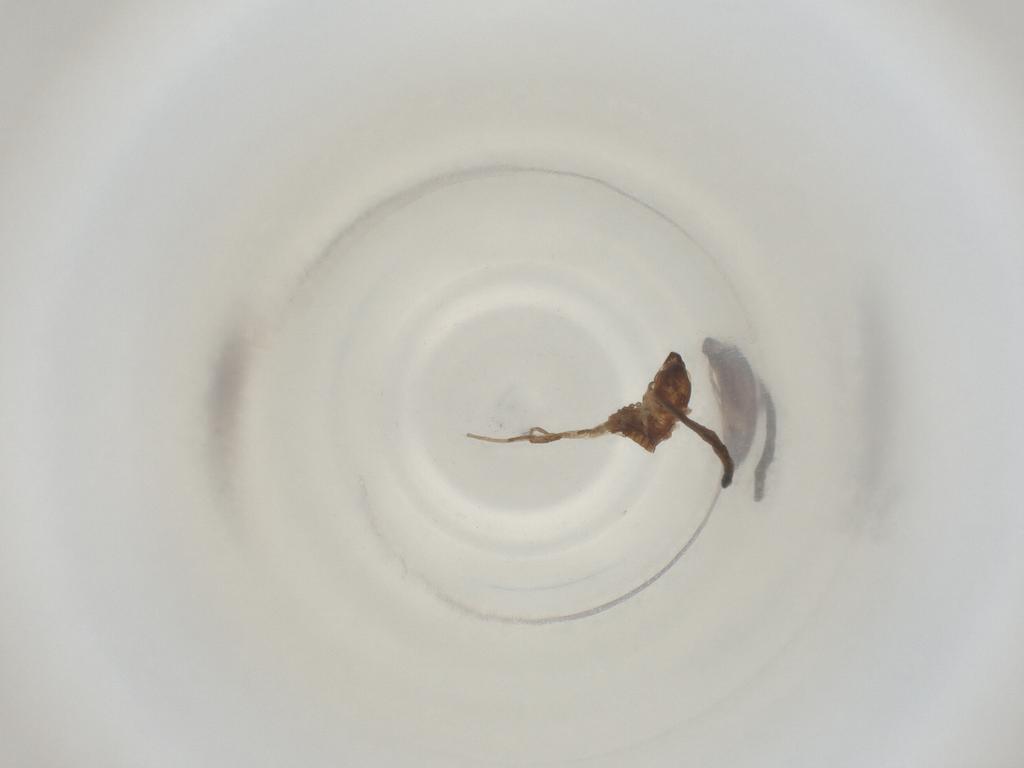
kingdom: Animalia
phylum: Arthropoda
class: Insecta
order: Diptera
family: Cecidomyiidae
